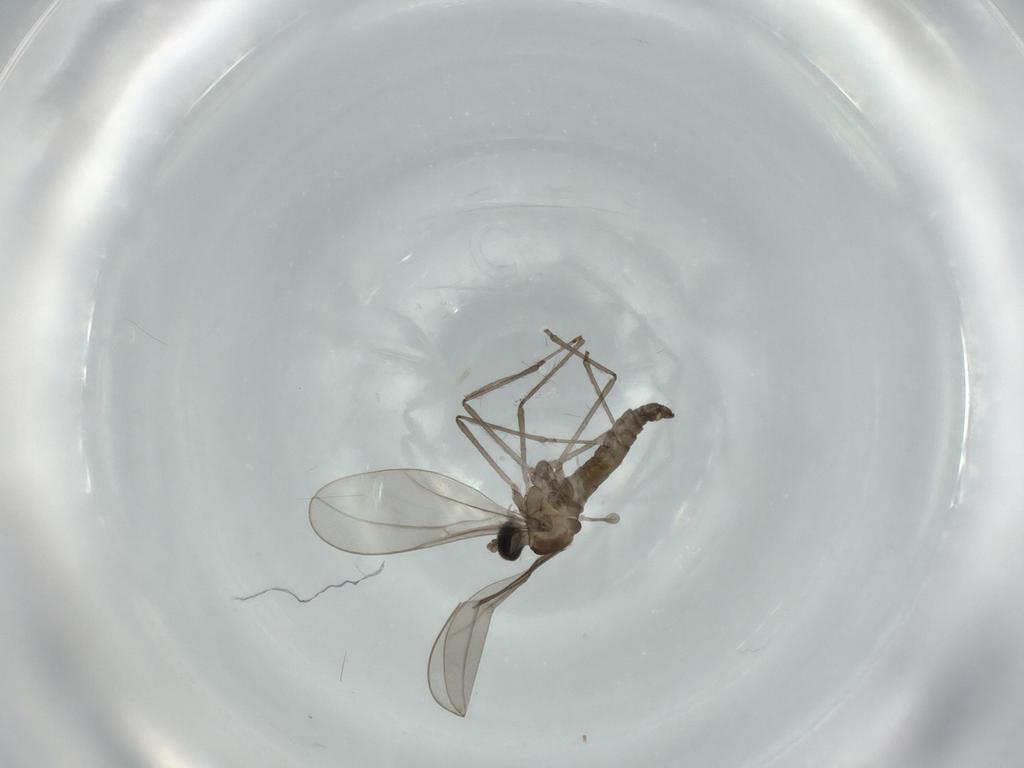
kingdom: Animalia
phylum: Arthropoda
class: Insecta
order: Diptera
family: Cecidomyiidae
